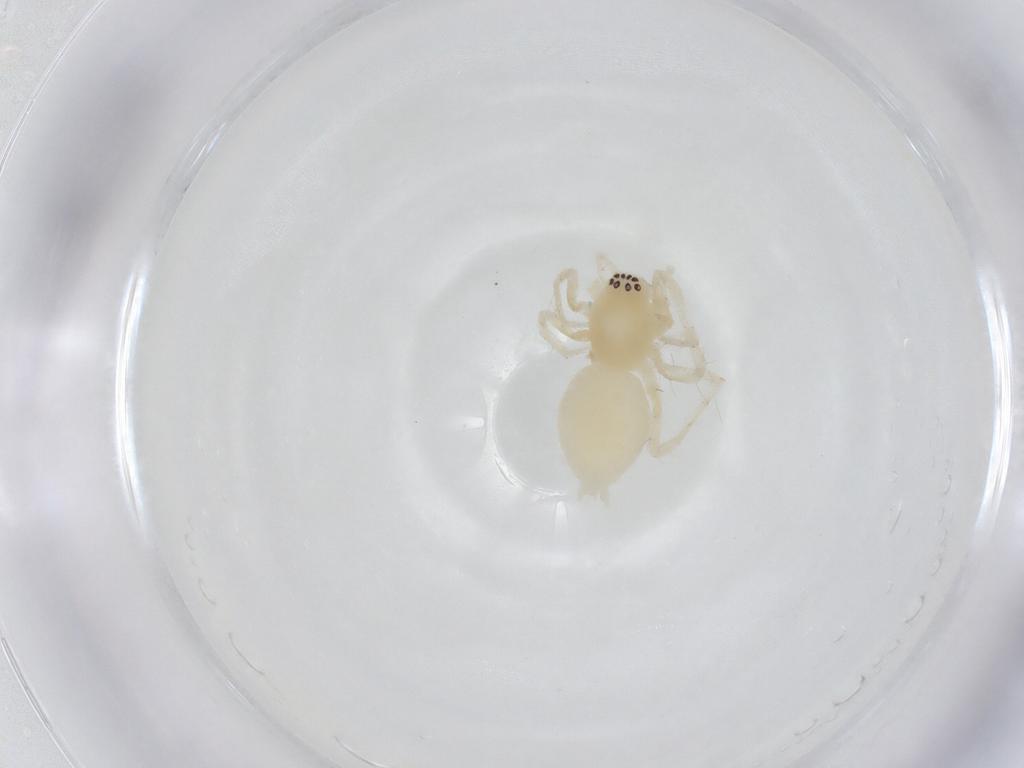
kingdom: Animalia
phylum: Arthropoda
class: Arachnida
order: Araneae
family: Anyphaenidae
